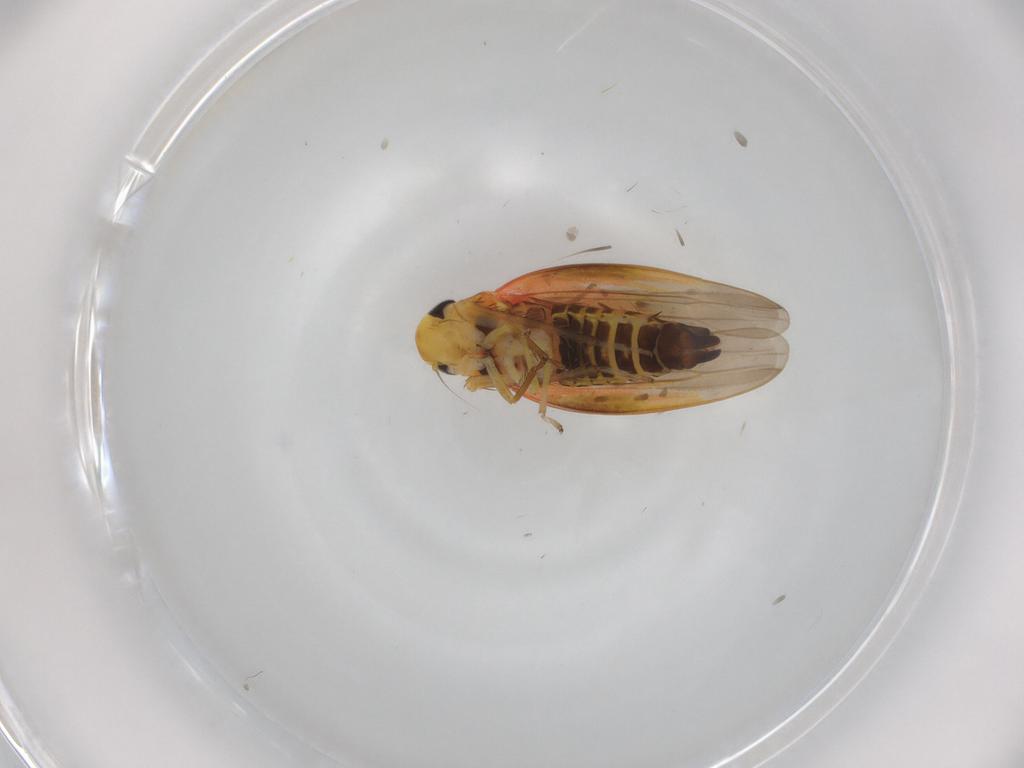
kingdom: Animalia
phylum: Arthropoda
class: Insecta
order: Hemiptera
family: Cicadellidae
